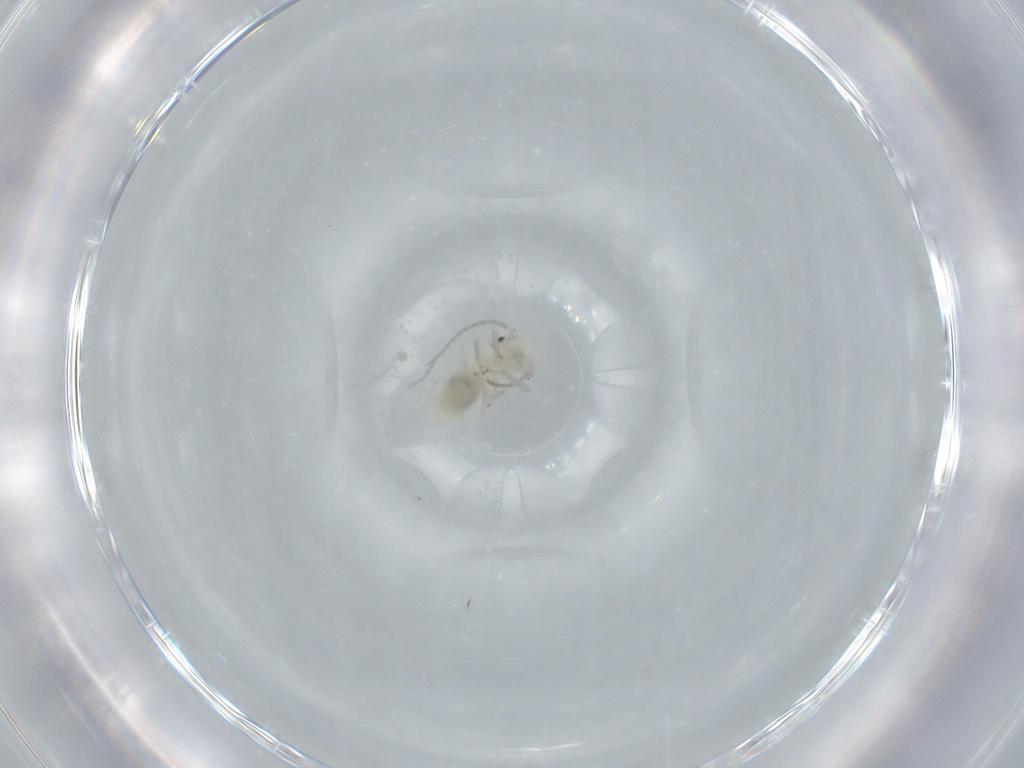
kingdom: Animalia
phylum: Arthropoda
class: Insecta
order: Psocodea
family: Caeciliusidae
